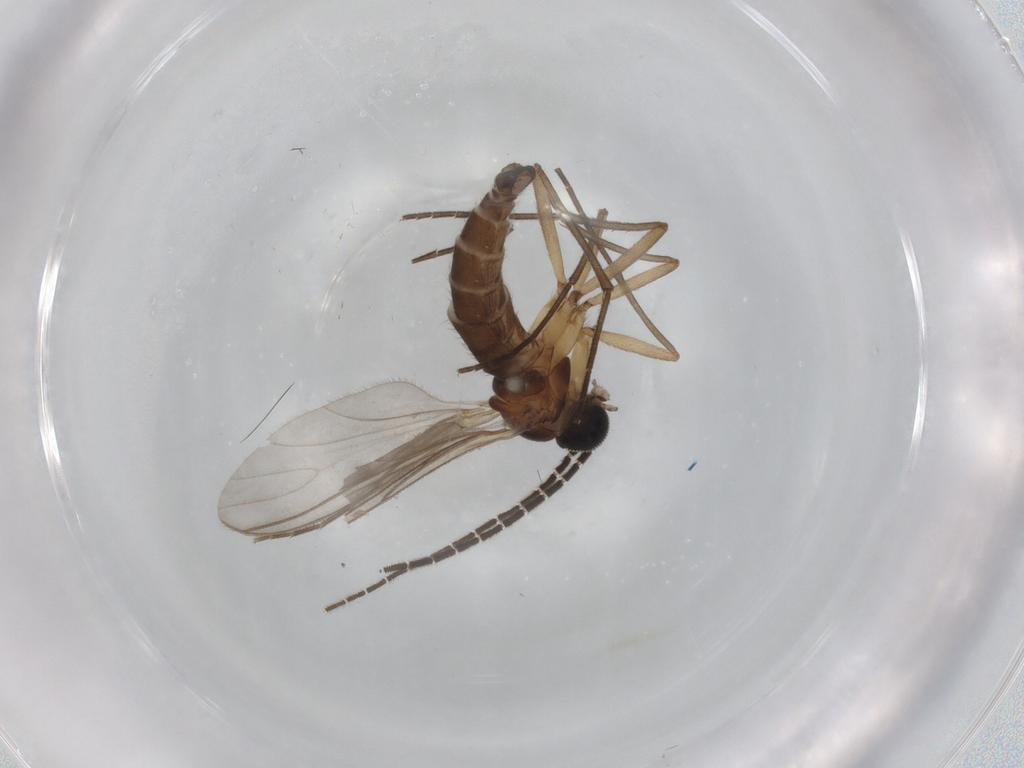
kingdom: Animalia
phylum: Arthropoda
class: Insecta
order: Diptera
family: Sciaridae
